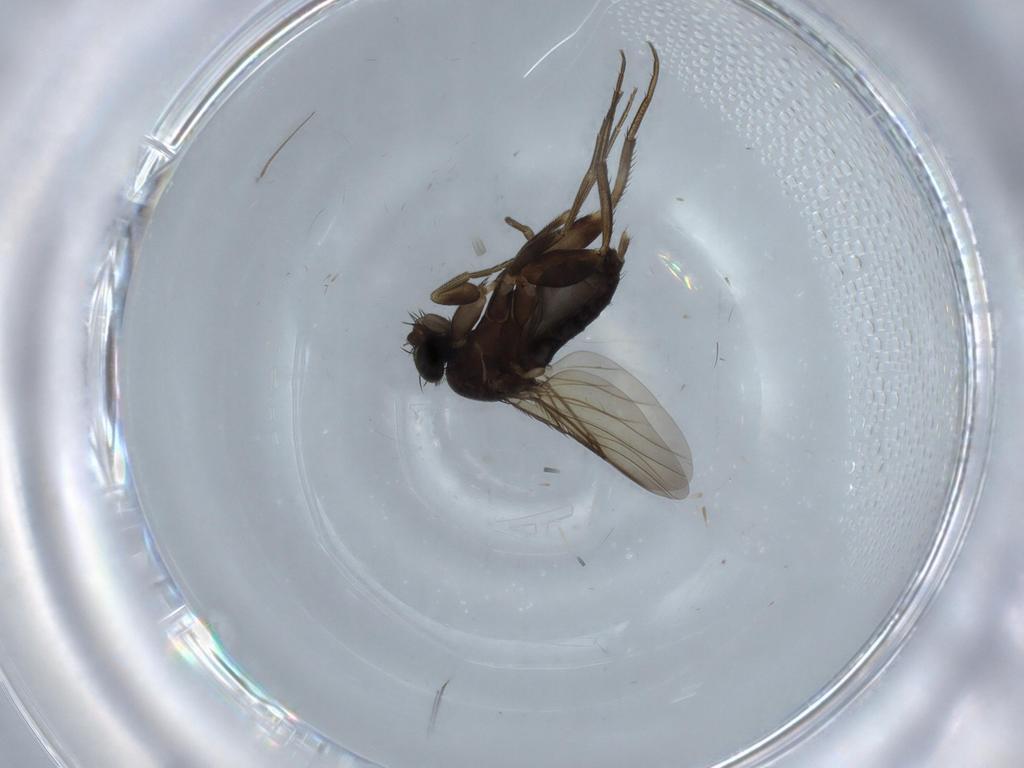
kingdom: Animalia
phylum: Arthropoda
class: Insecta
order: Diptera
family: Phoridae
